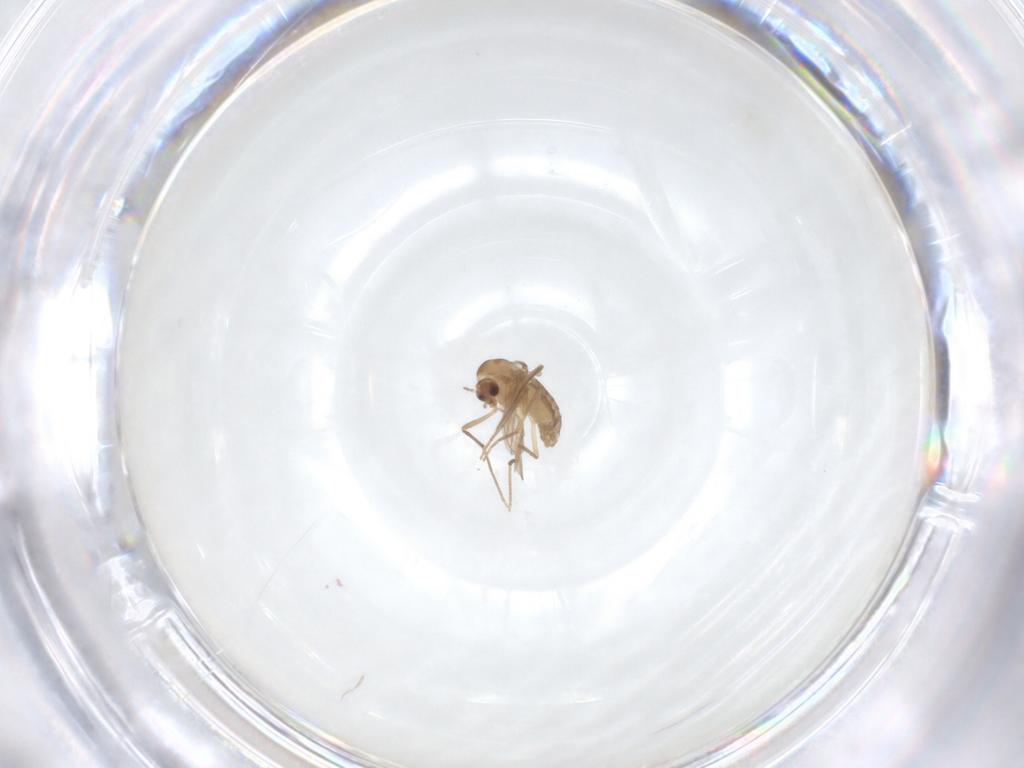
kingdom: Animalia
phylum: Arthropoda
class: Insecta
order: Diptera
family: Chironomidae
